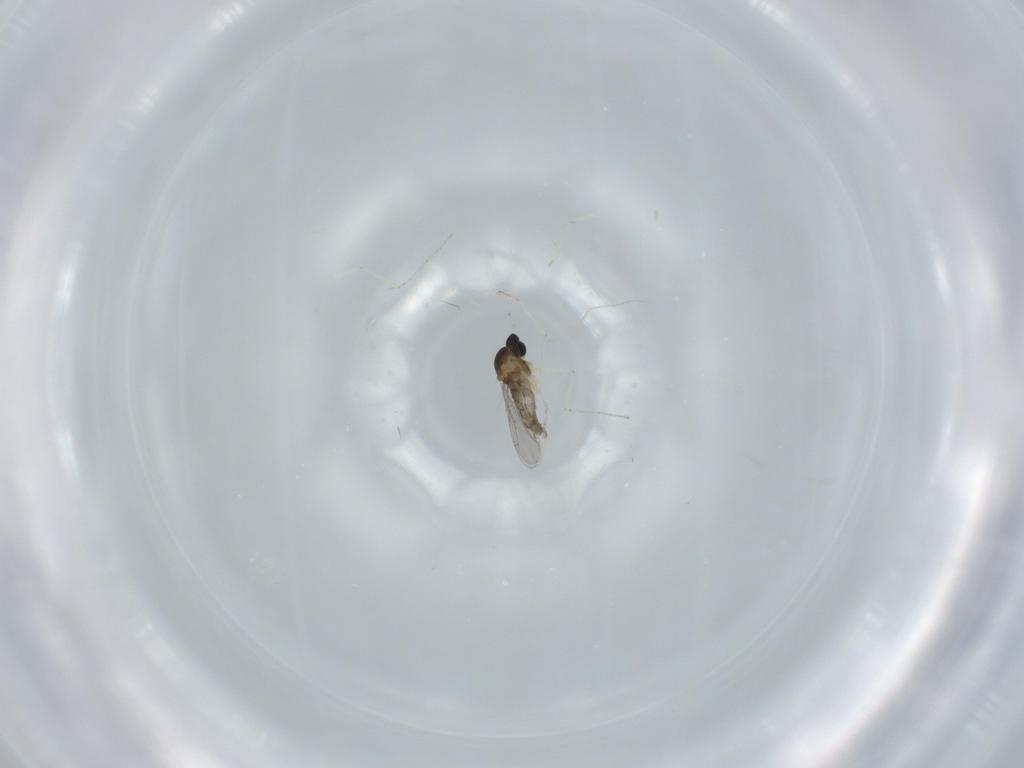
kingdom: Animalia
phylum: Arthropoda
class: Insecta
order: Diptera
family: Cecidomyiidae
